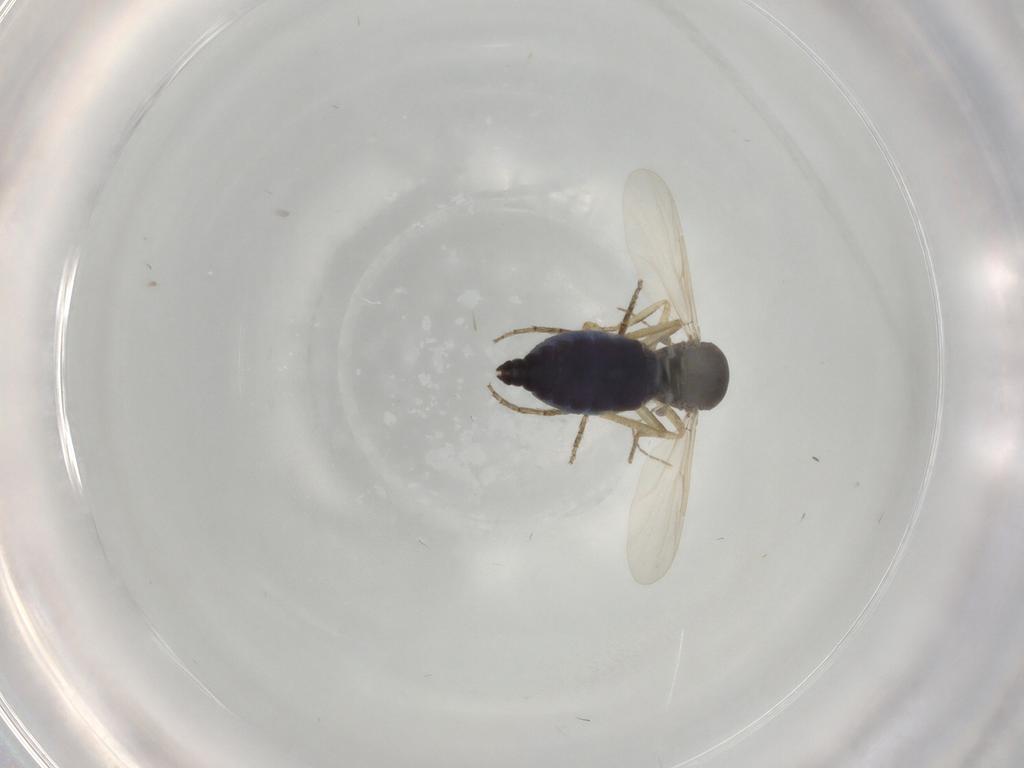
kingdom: Animalia
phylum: Arthropoda
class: Insecta
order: Diptera
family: Ceratopogonidae
